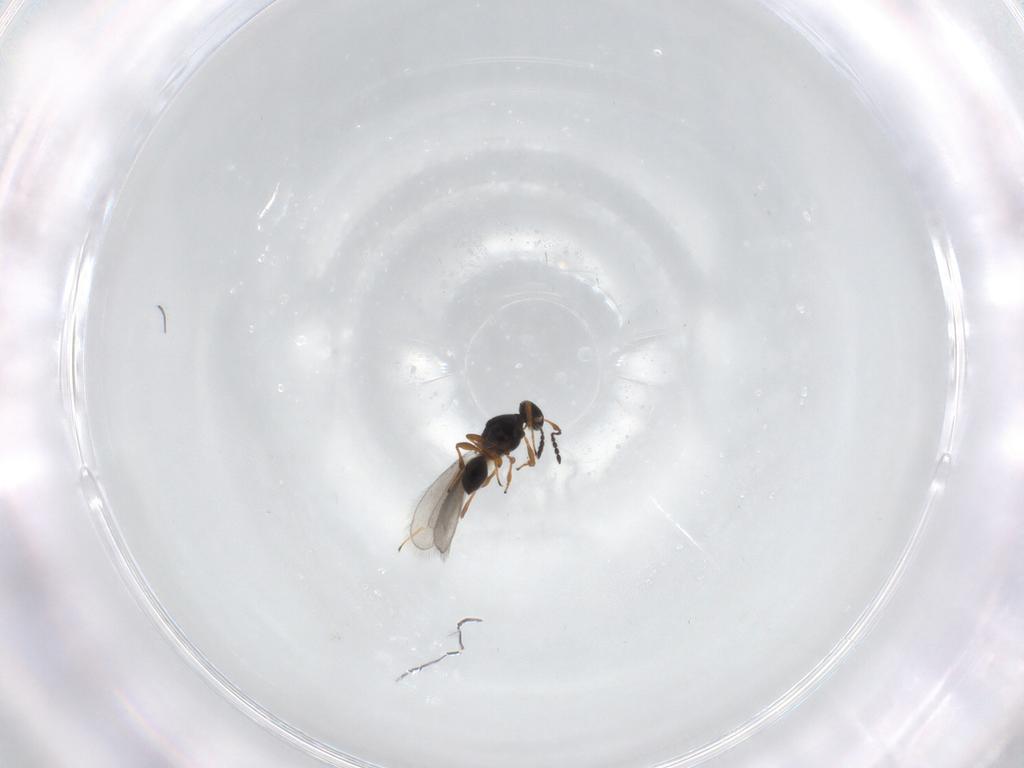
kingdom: Animalia
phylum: Arthropoda
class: Insecta
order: Hymenoptera
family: Platygastridae
